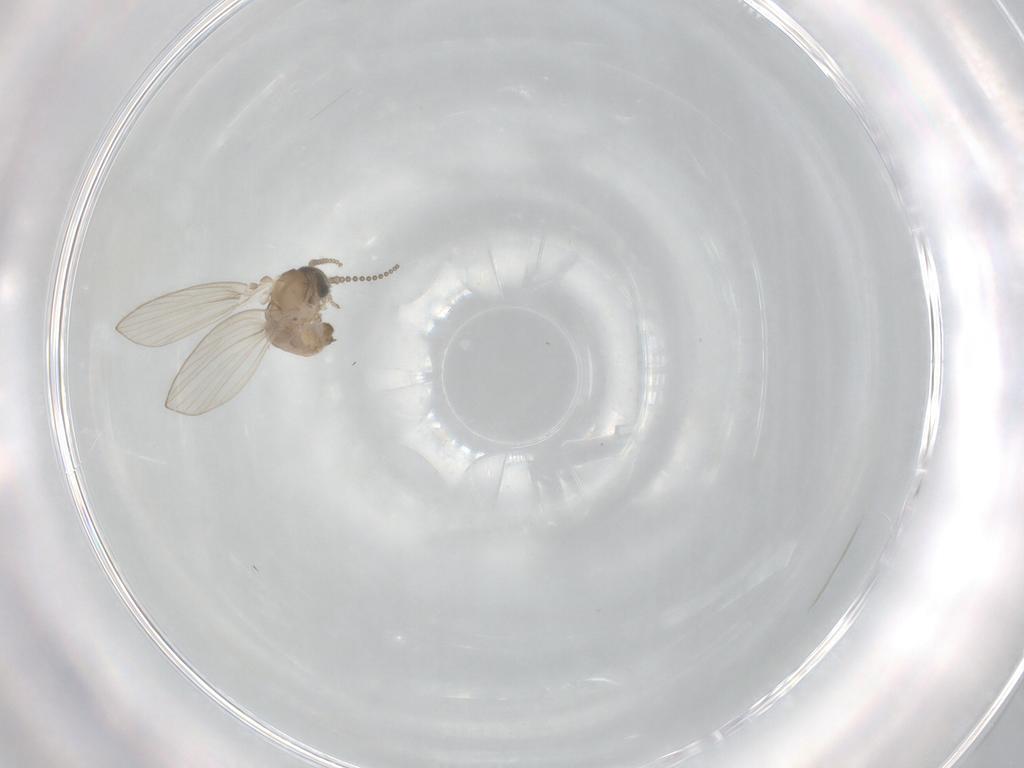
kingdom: Animalia
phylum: Arthropoda
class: Insecta
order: Diptera
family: Psychodidae
